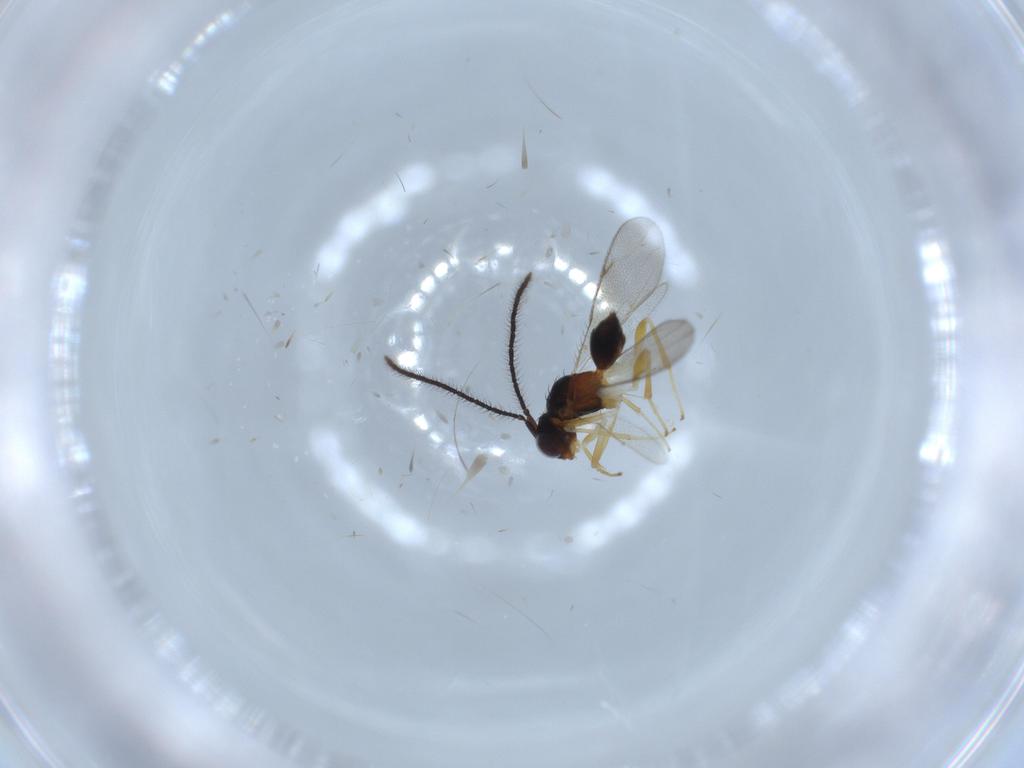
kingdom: Animalia
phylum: Arthropoda
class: Insecta
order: Hymenoptera
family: Diparidae
